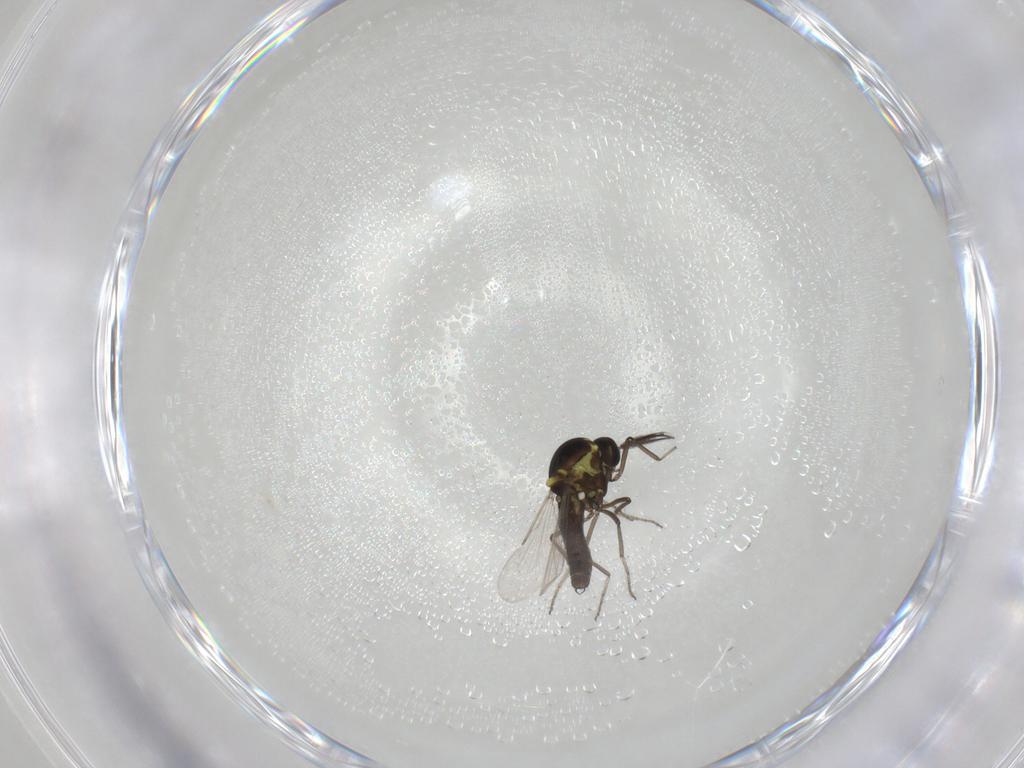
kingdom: Animalia
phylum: Arthropoda
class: Insecta
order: Diptera
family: Ceratopogonidae
